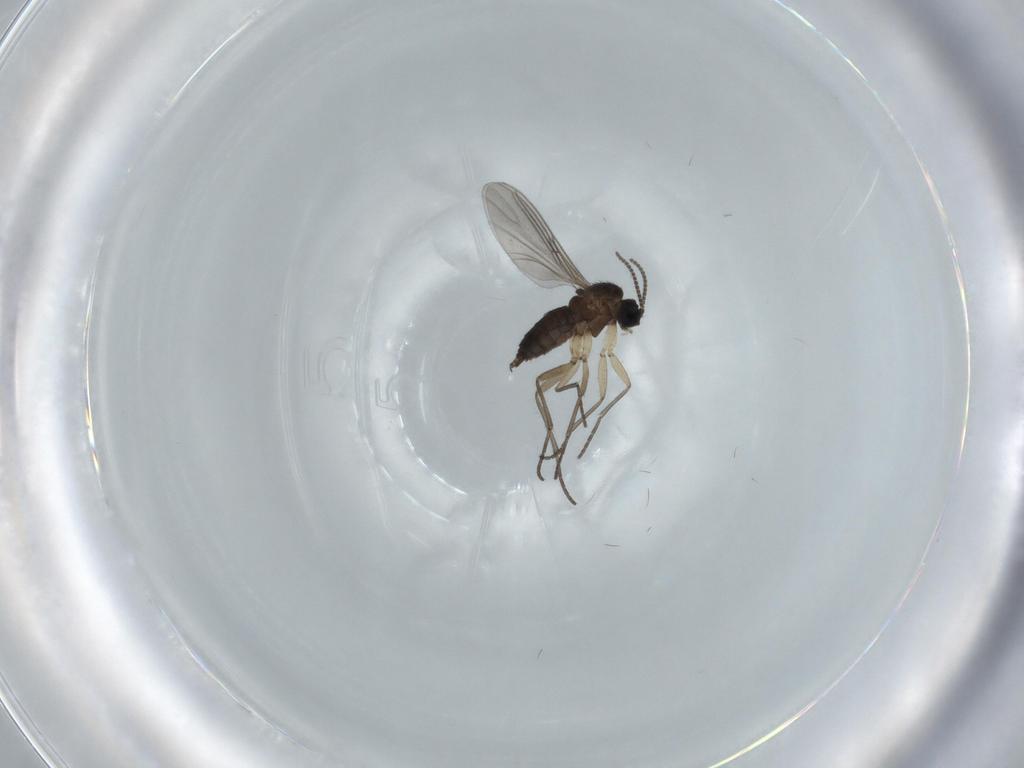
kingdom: Animalia
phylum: Arthropoda
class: Insecta
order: Diptera
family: Sciaridae
